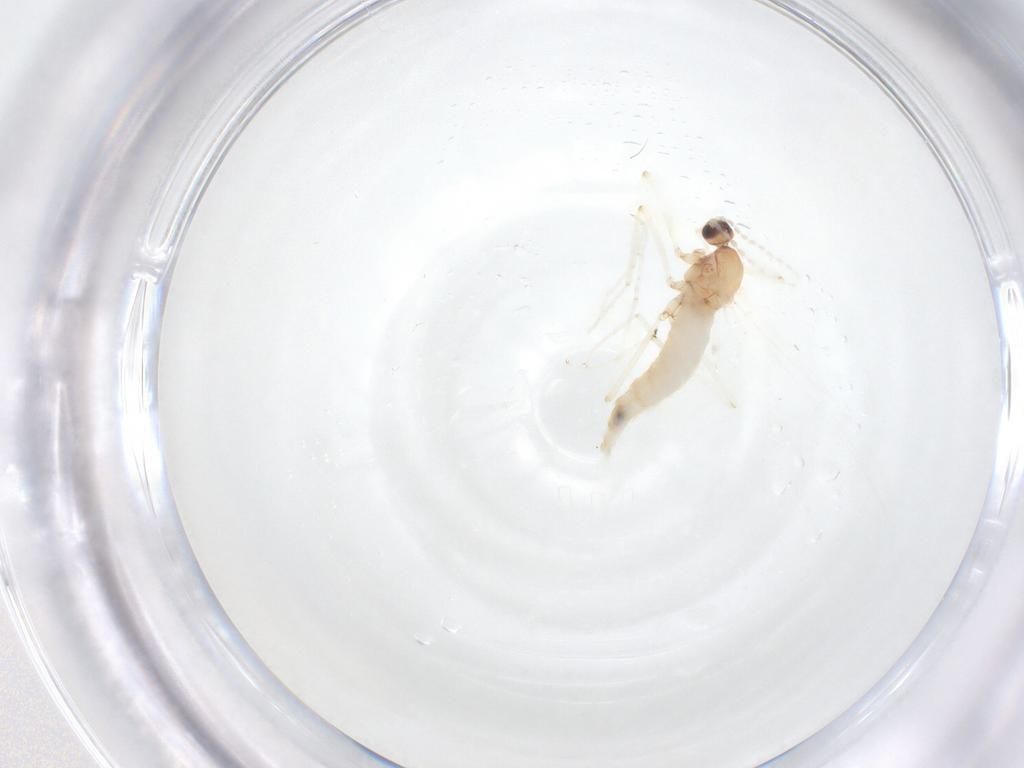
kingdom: Animalia
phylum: Arthropoda
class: Insecta
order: Diptera
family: Cecidomyiidae
